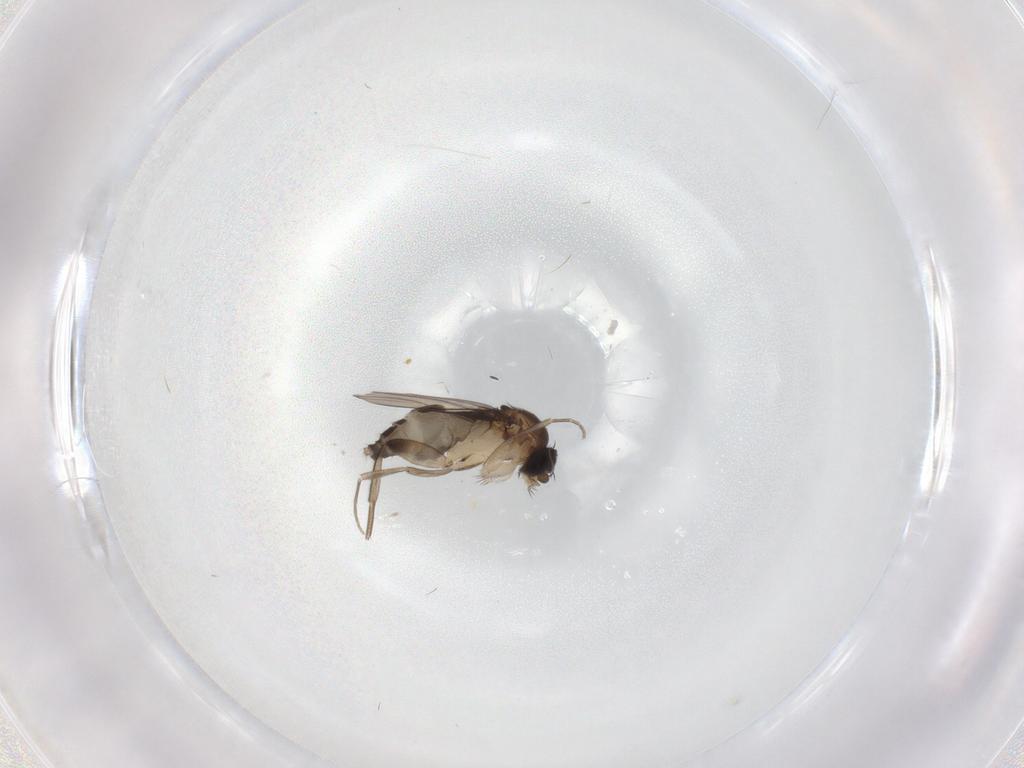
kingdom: Animalia
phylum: Arthropoda
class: Insecta
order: Diptera
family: Phoridae
